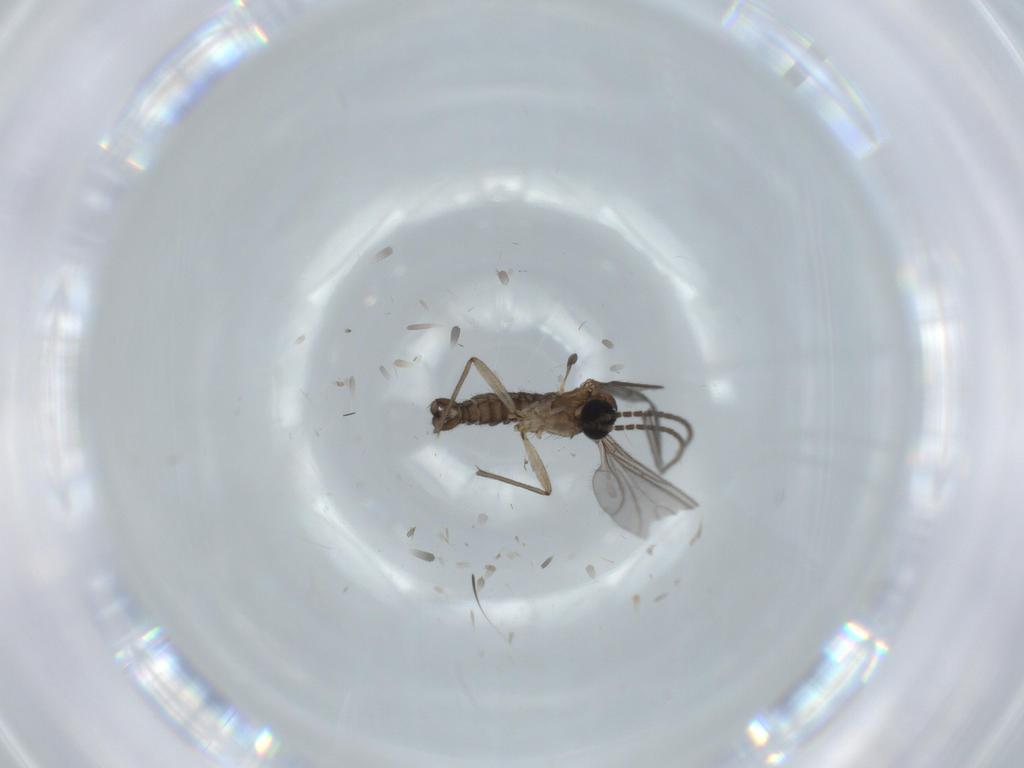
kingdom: Animalia
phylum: Arthropoda
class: Insecta
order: Diptera
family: Sciaridae
